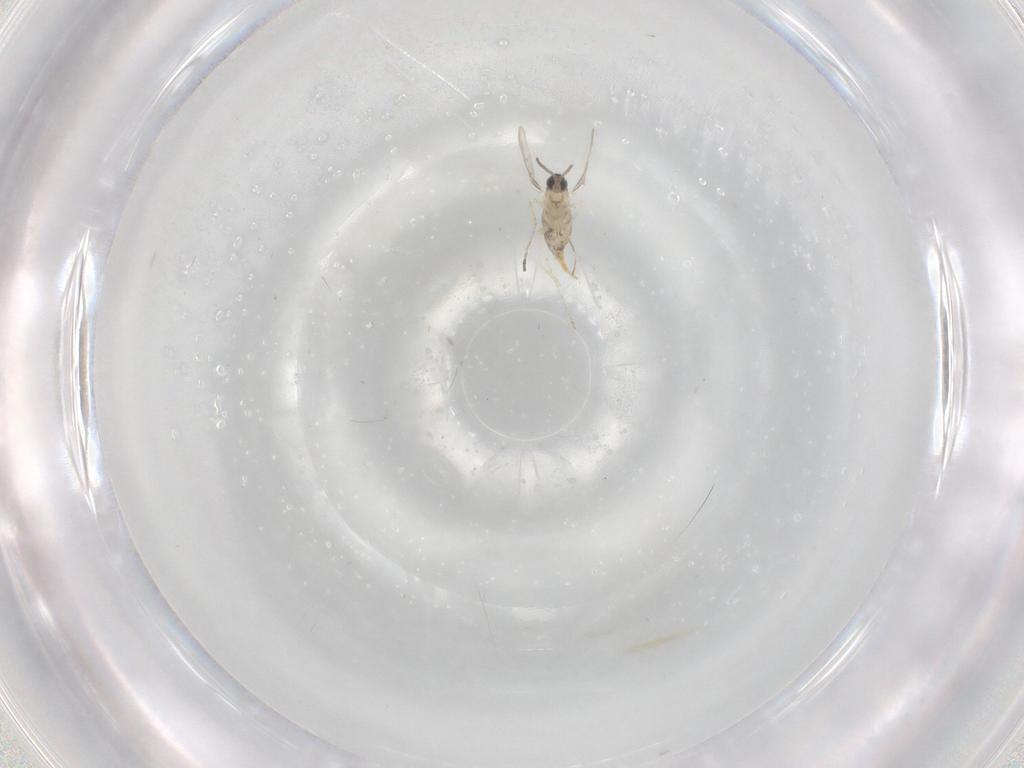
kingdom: Animalia
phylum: Arthropoda
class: Insecta
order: Diptera
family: Cecidomyiidae
